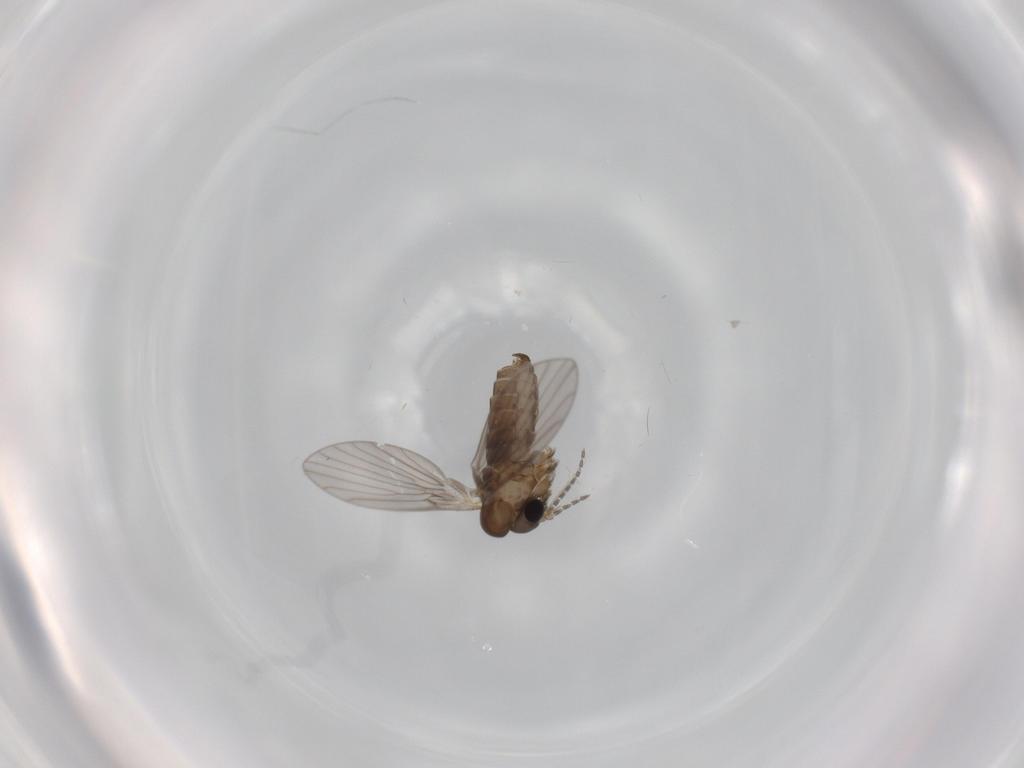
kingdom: Animalia
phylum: Arthropoda
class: Insecta
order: Diptera
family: Psychodidae
